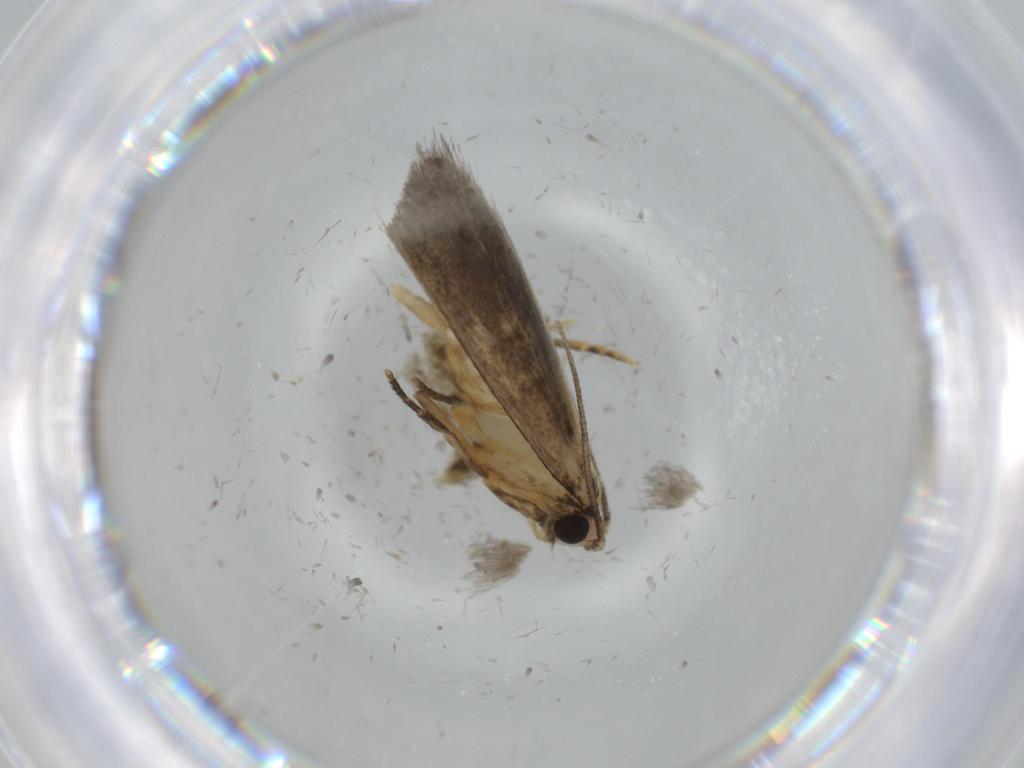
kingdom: Animalia
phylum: Arthropoda
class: Insecta
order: Lepidoptera
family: Tineidae
